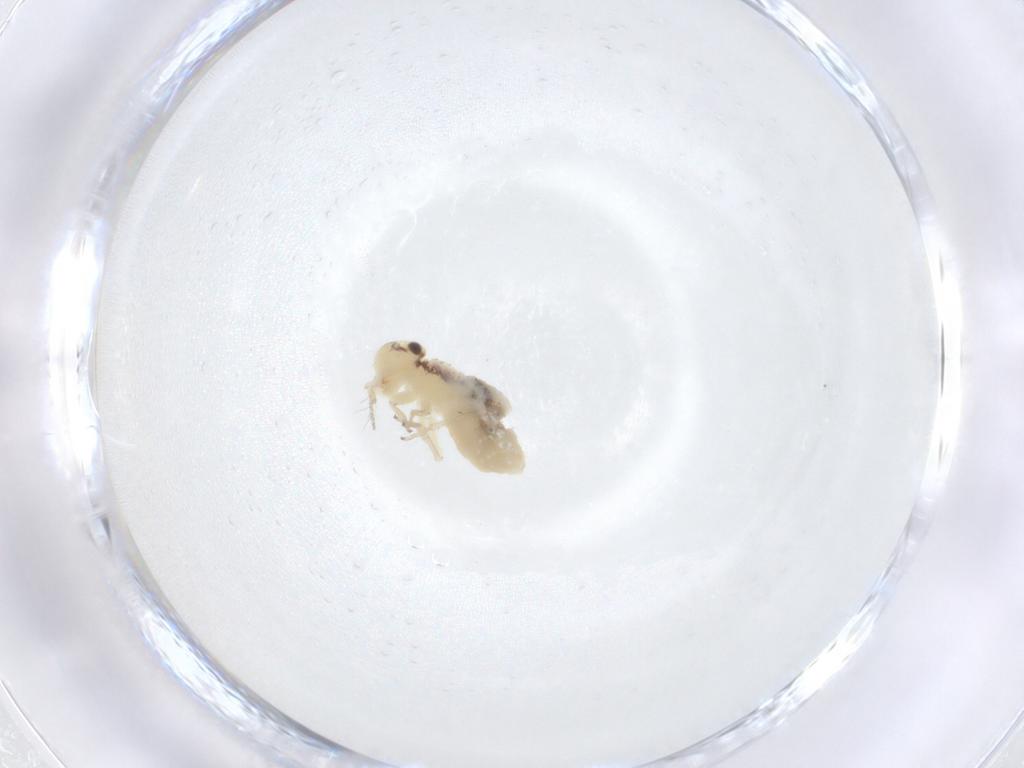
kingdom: Animalia
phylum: Arthropoda
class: Insecta
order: Psocodea
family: Pseudocaeciliidae
